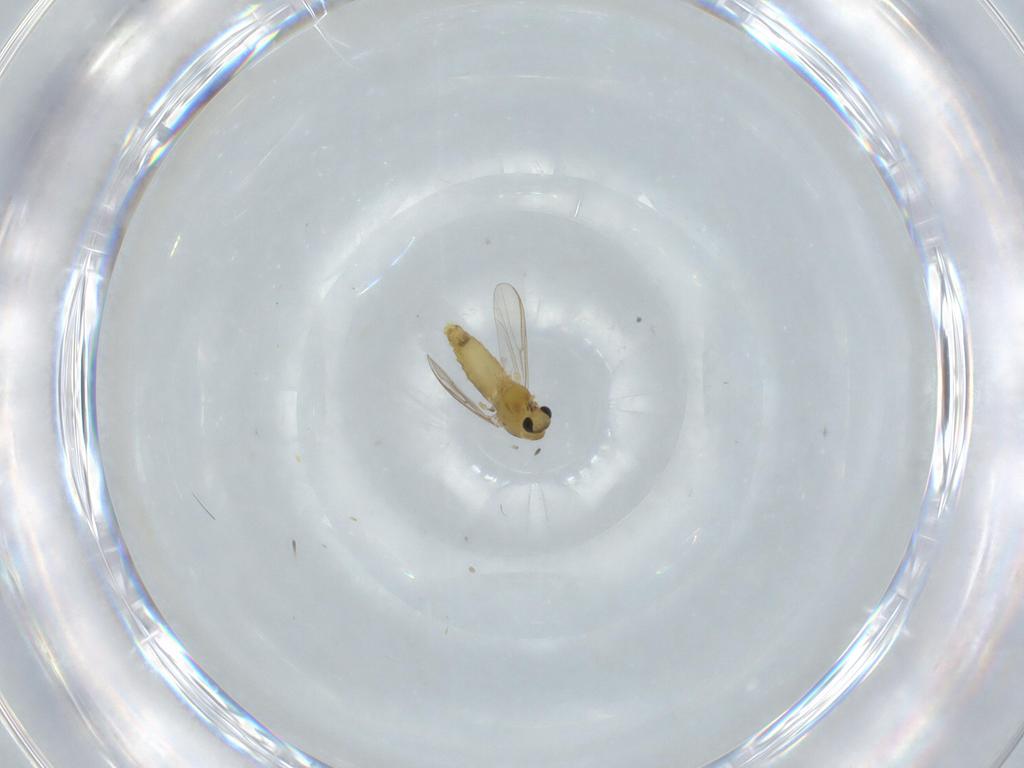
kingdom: Animalia
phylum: Arthropoda
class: Insecta
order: Diptera
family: Chironomidae
